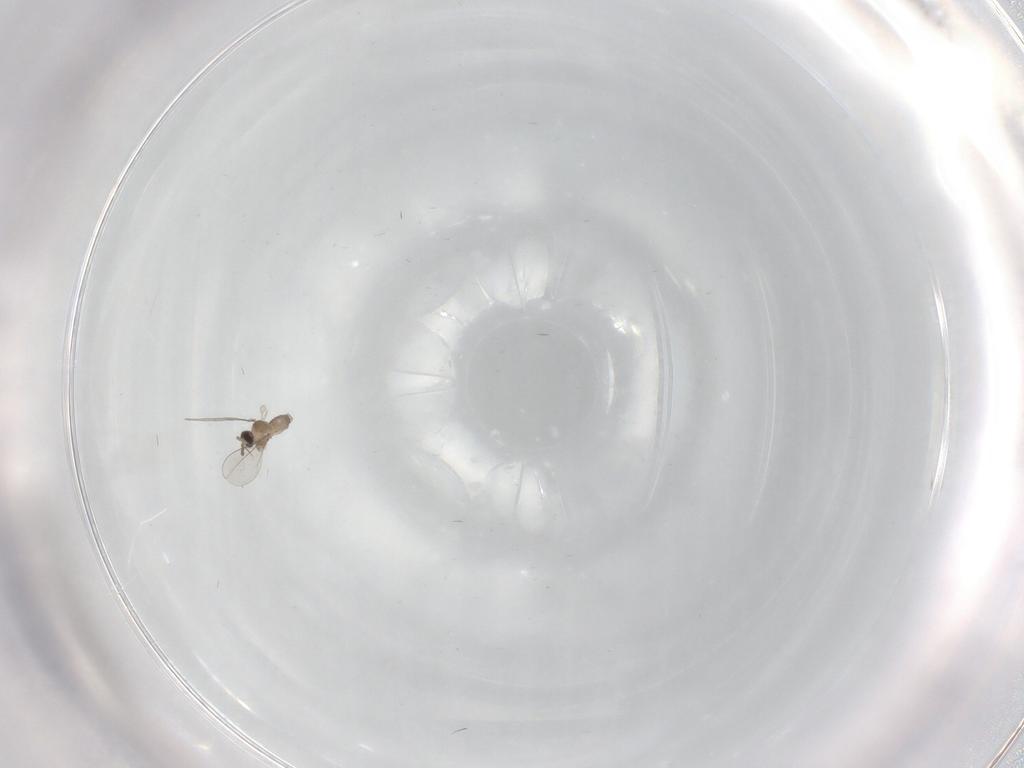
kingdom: Animalia
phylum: Arthropoda
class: Insecta
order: Diptera
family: Cecidomyiidae
